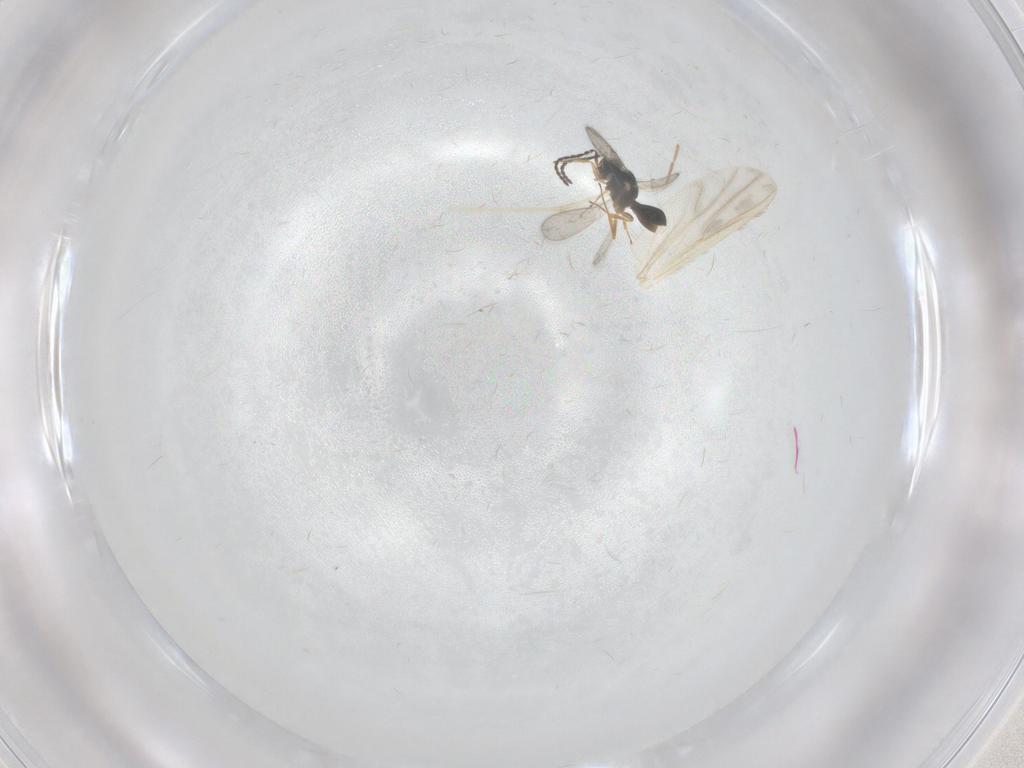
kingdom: Animalia
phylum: Arthropoda
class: Insecta
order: Hymenoptera
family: Scelionidae
